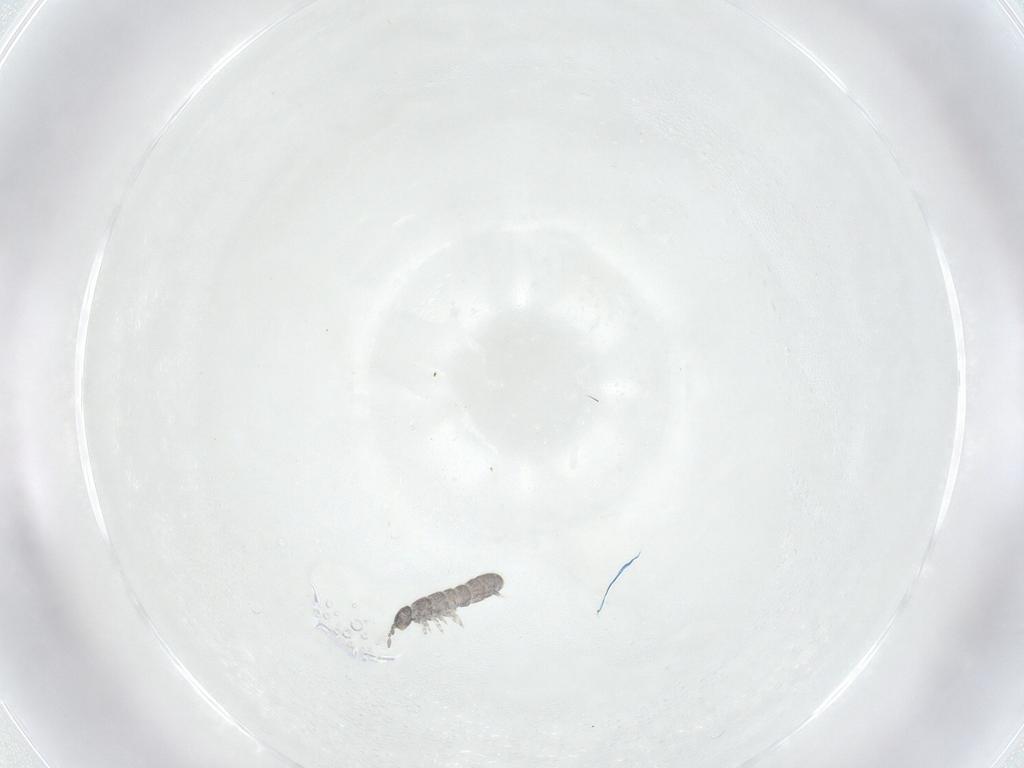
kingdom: Animalia
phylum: Arthropoda
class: Collembola
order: Entomobryomorpha
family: Isotomidae
